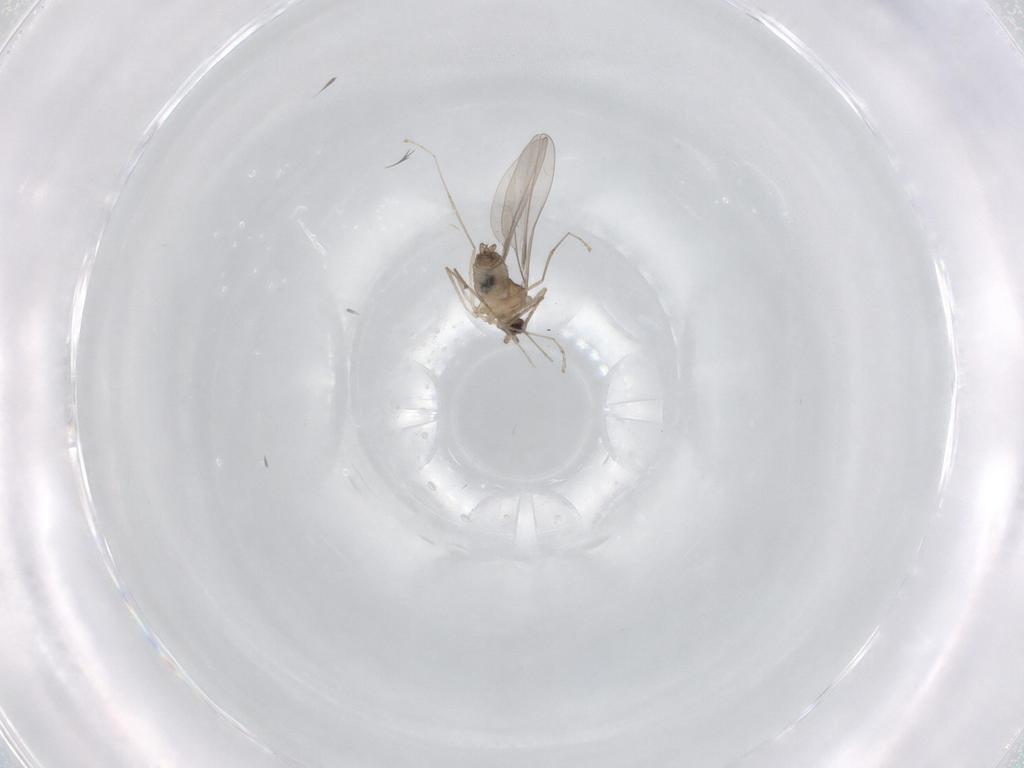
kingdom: Animalia
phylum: Arthropoda
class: Insecta
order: Diptera
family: Cecidomyiidae
